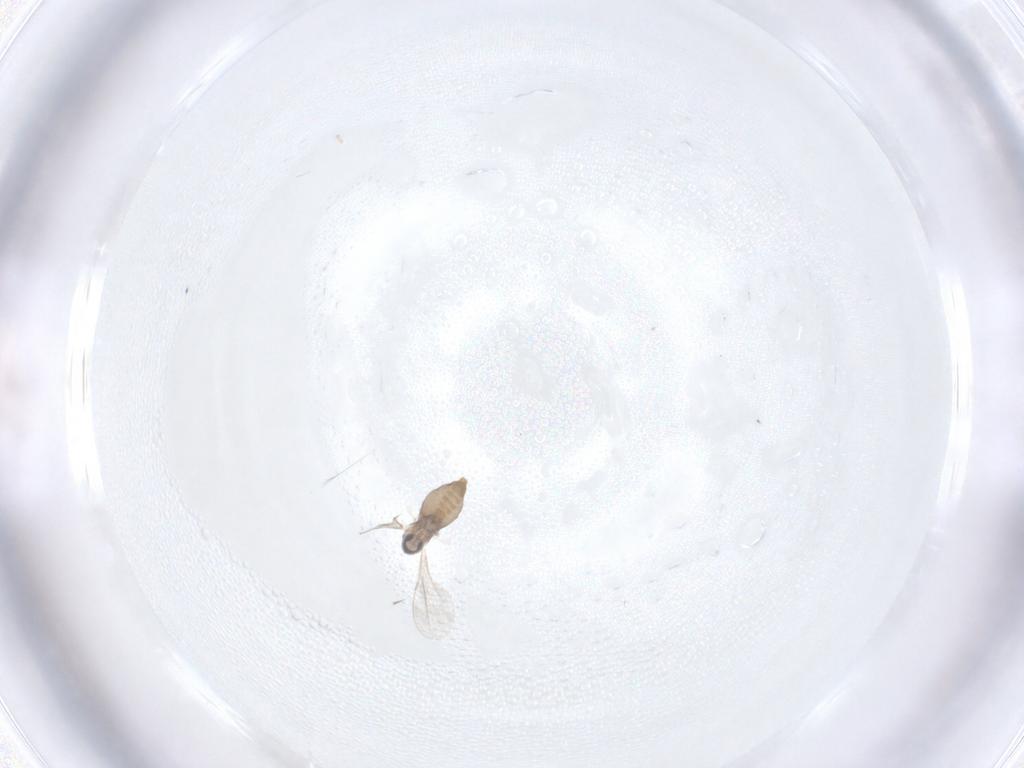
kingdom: Animalia
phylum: Arthropoda
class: Insecta
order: Diptera
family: Cecidomyiidae
